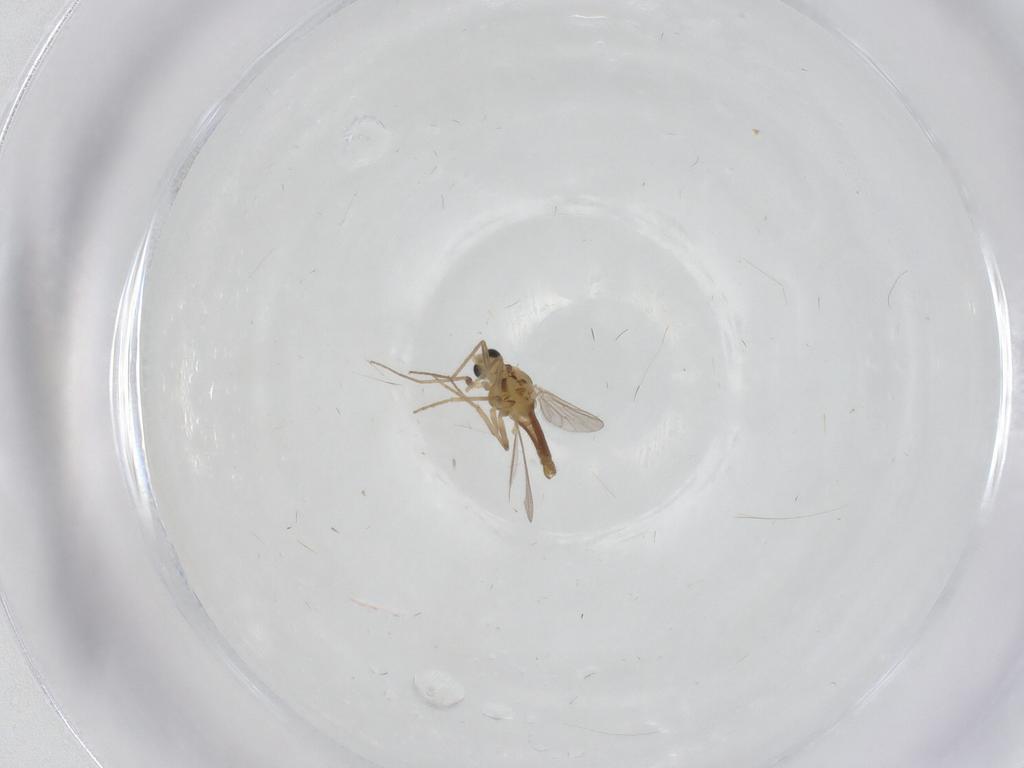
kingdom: Animalia
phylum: Arthropoda
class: Insecta
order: Diptera
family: Chironomidae
